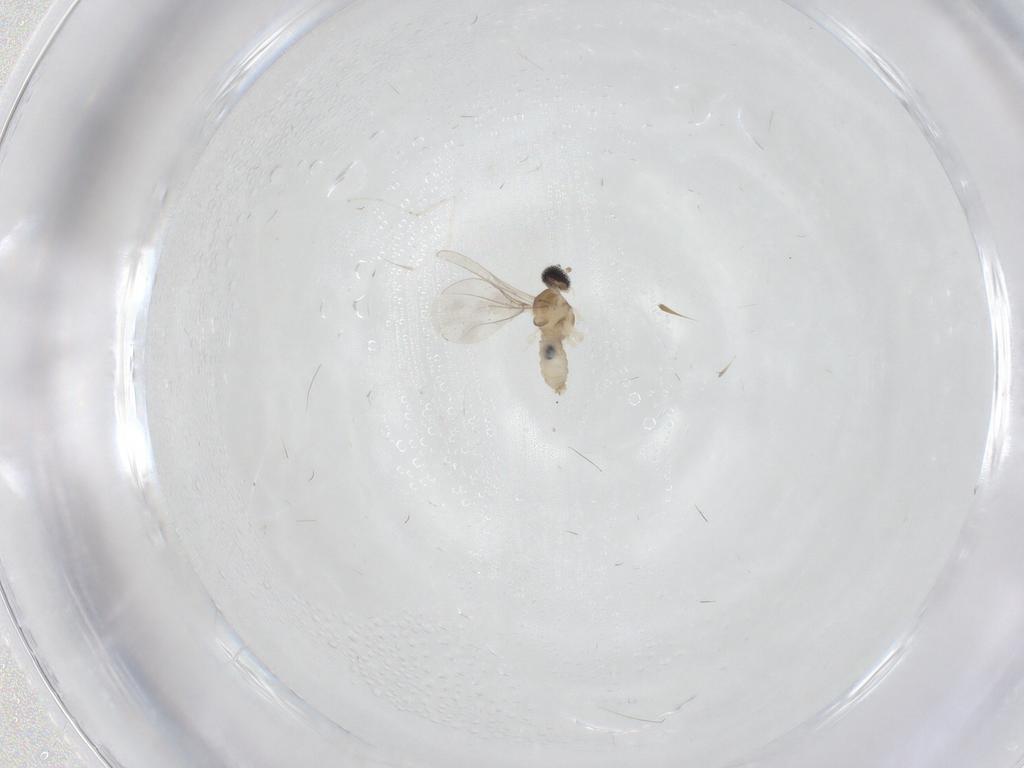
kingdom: Animalia
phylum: Arthropoda
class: Insecta
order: Diptera
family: Cecidomyiidae
